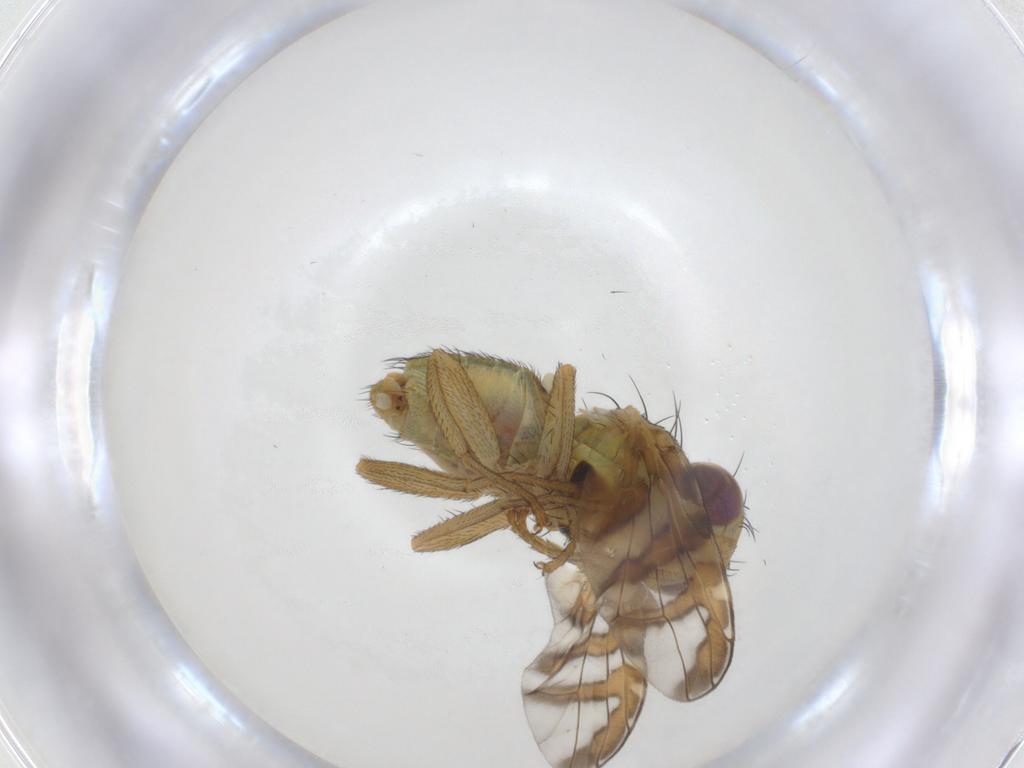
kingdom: Animalia
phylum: Arthropoda
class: Insecta
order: Diptera
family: Tephritidae
